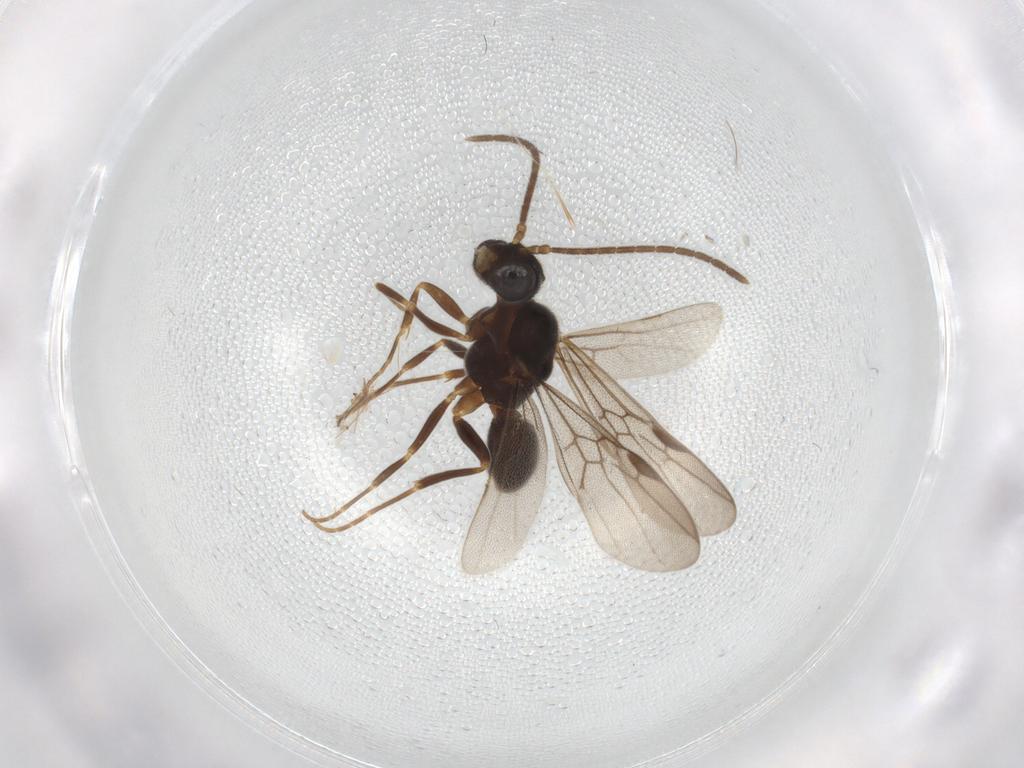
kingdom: Animalia
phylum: Arthropoda
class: Insecta
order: Hymenoptera
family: Formicidae
